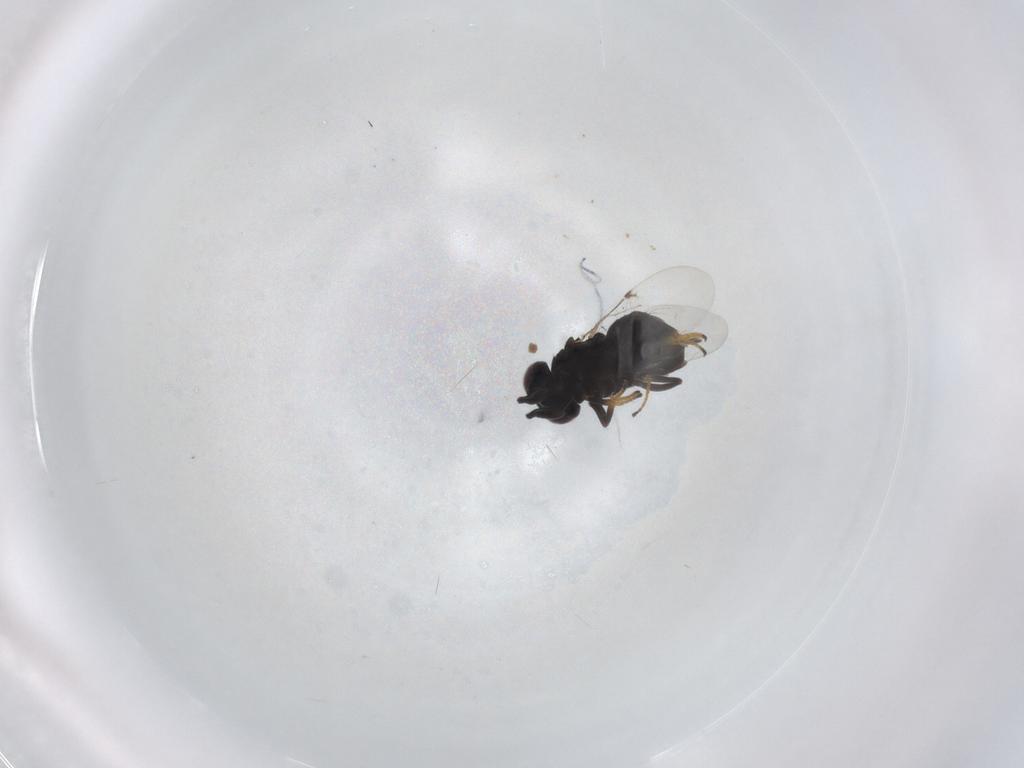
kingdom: Animalia
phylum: Arthropoda
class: Insecta
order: Hymenoptera
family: Encyrtidae
